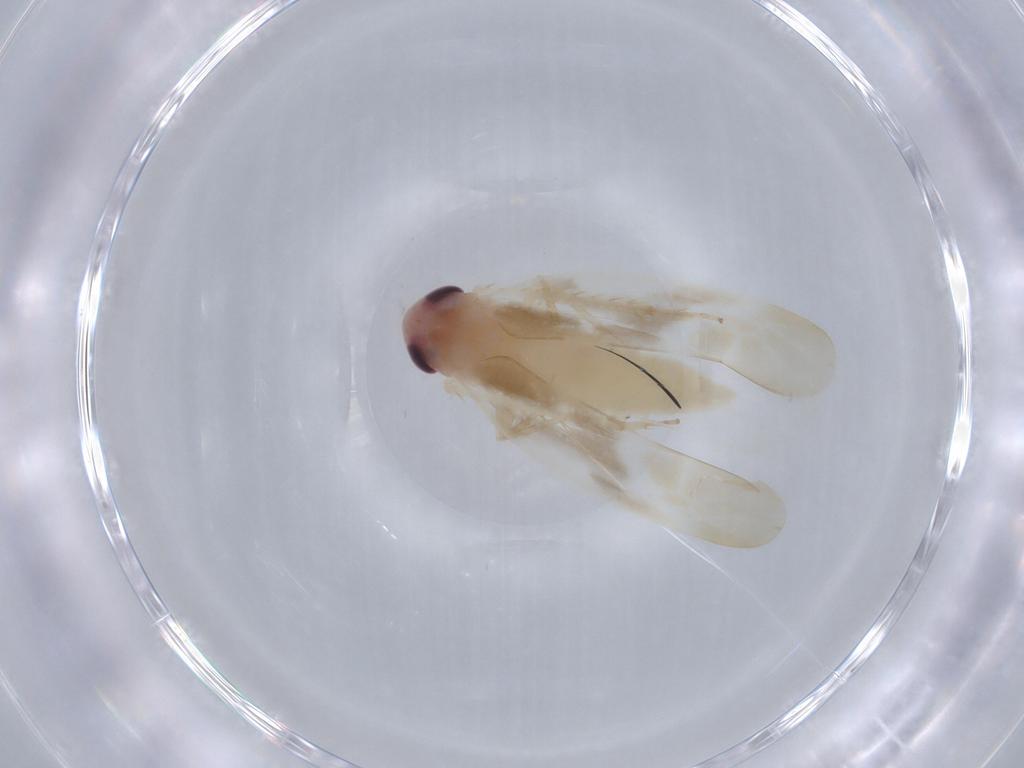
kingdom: Animalia
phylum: Arthropoda
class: Insecta
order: Hemiptera
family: Cicadellidae
